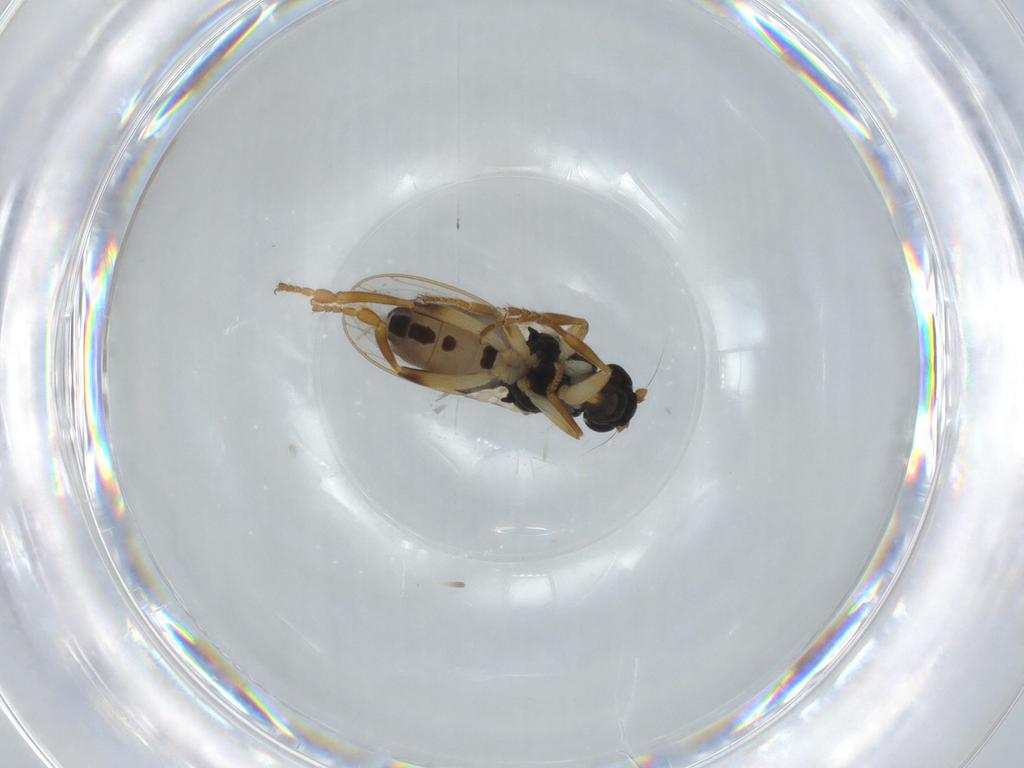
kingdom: Animalia
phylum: Arthropoda
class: Insecta
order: Diptera
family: Sphaeroceridae
